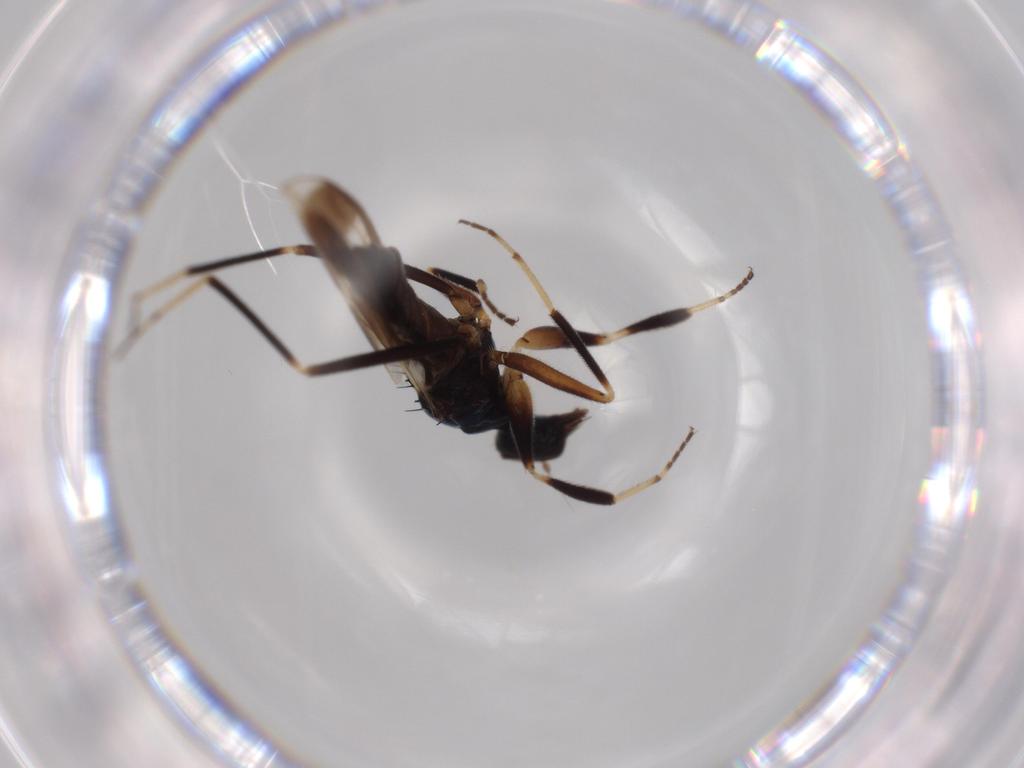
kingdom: Animalia
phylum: Arthropoda
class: Insecta
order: Diptera
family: Hybotidae
